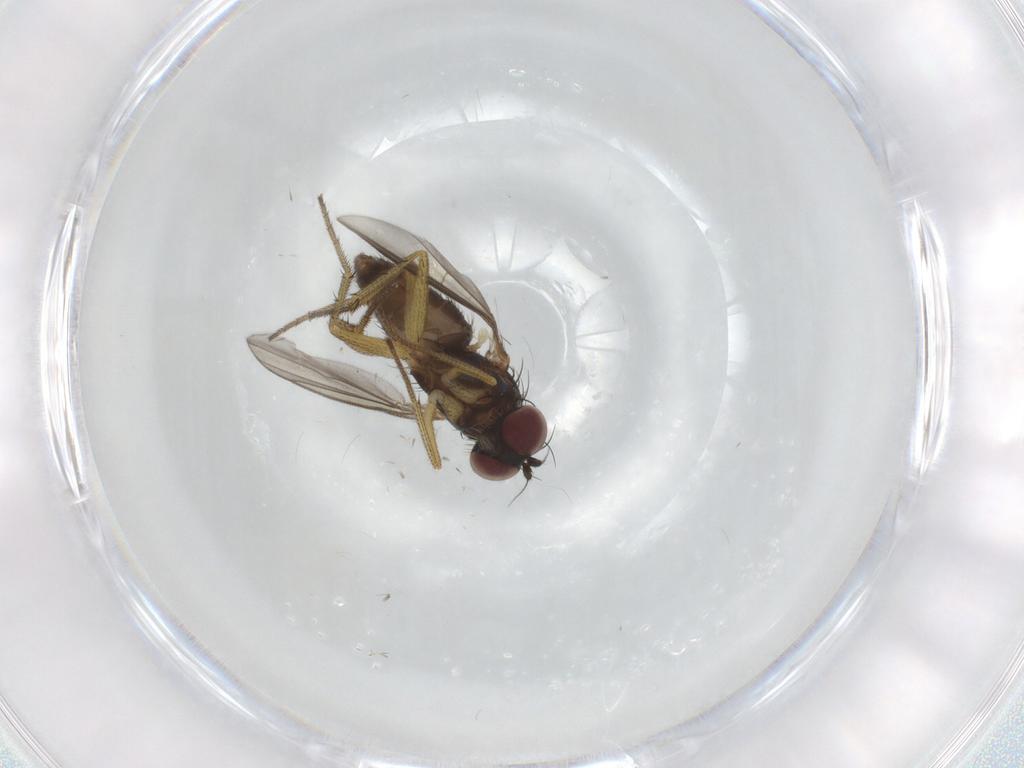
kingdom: Animalia
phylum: Arthropoda
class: Insecta
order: Diptera
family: Dolichopodidae
